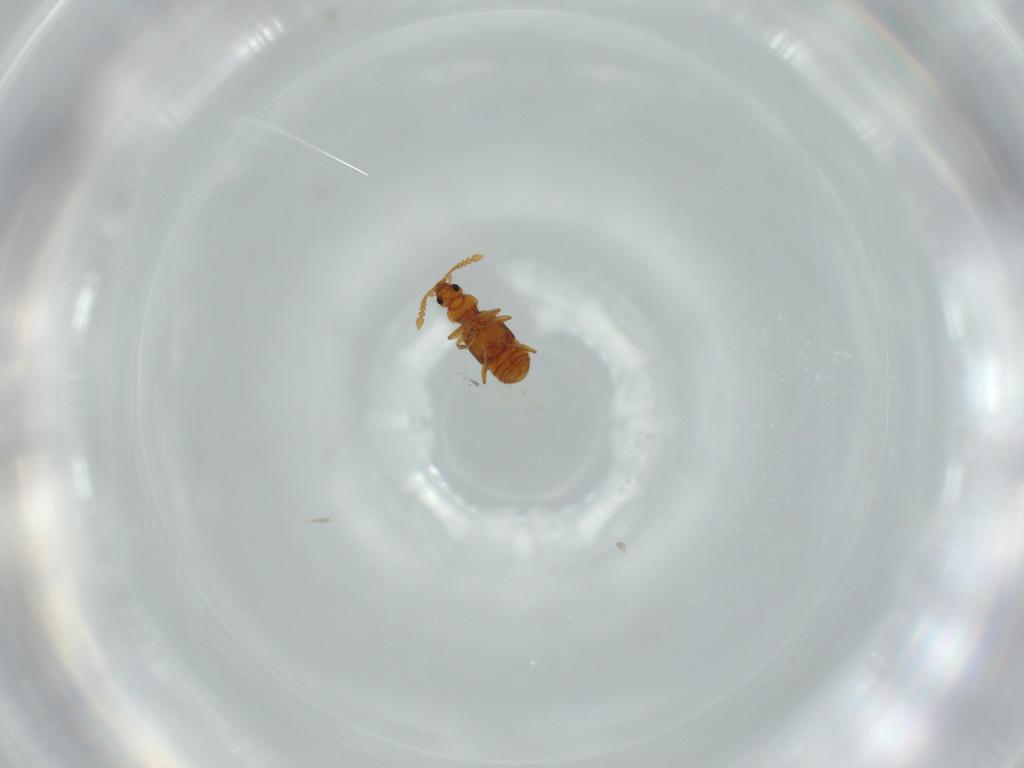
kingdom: Animalia
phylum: Arthropoda
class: Insecta
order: Coleoptera
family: Staphylinidae
